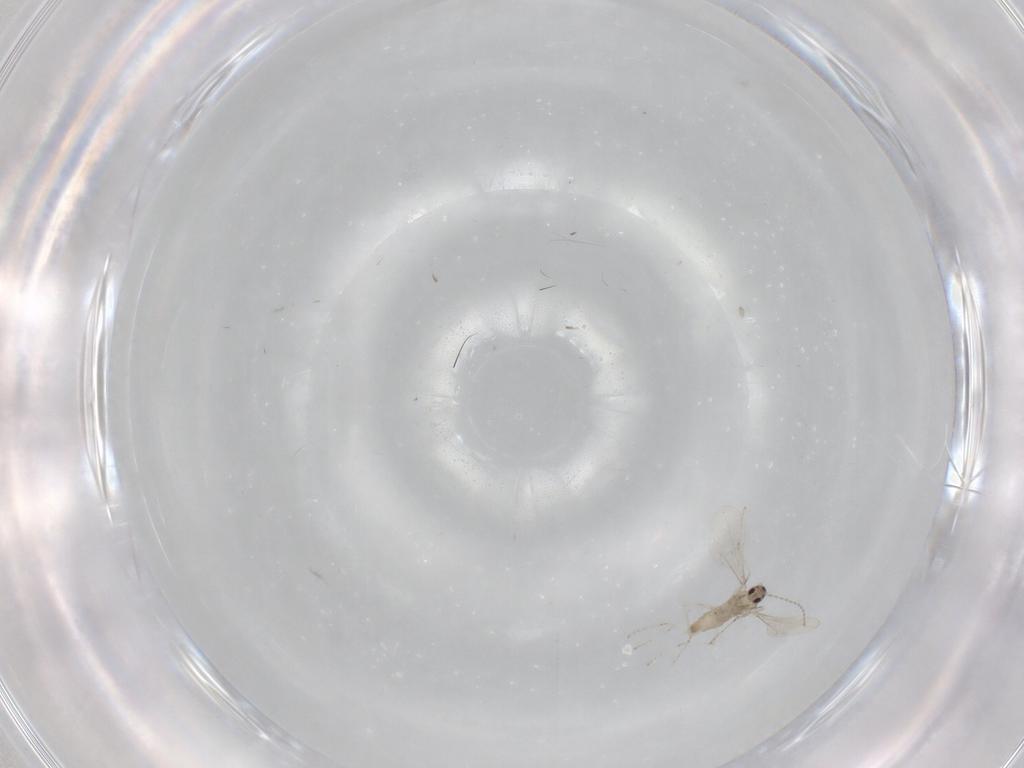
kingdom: Animalia
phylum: Arthropoda
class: Insecta
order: Diptera
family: Cecidomyiidae
